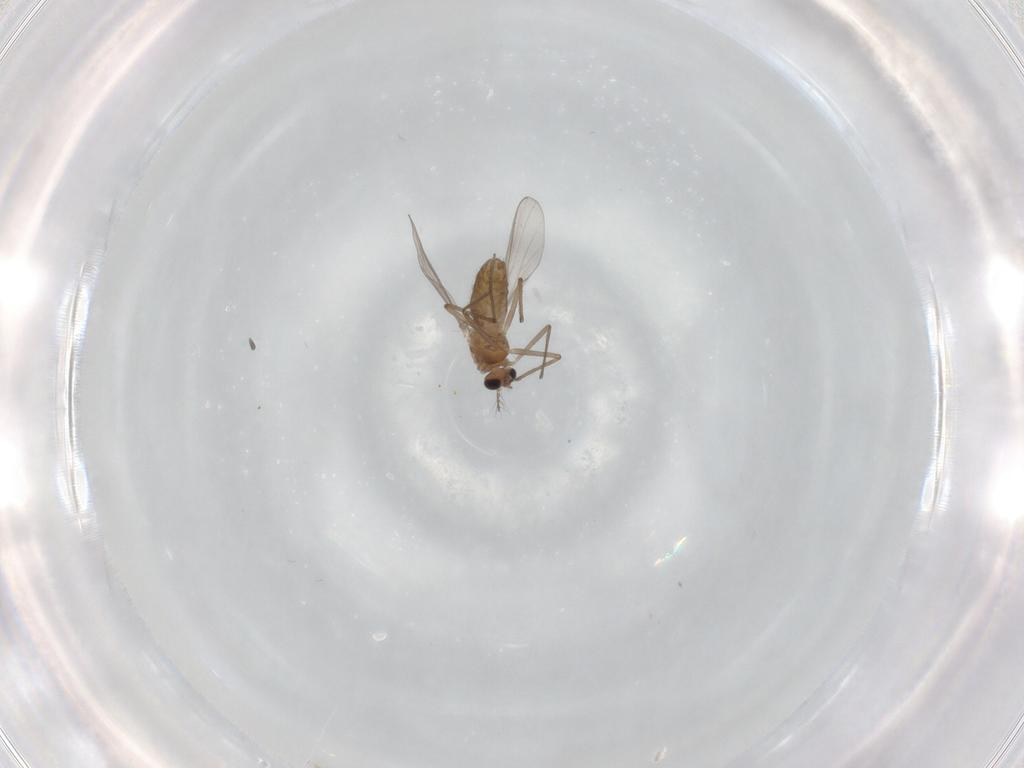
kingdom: Animalia
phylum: Arthropoda
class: Insecta
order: Diptera
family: Chironomidae
